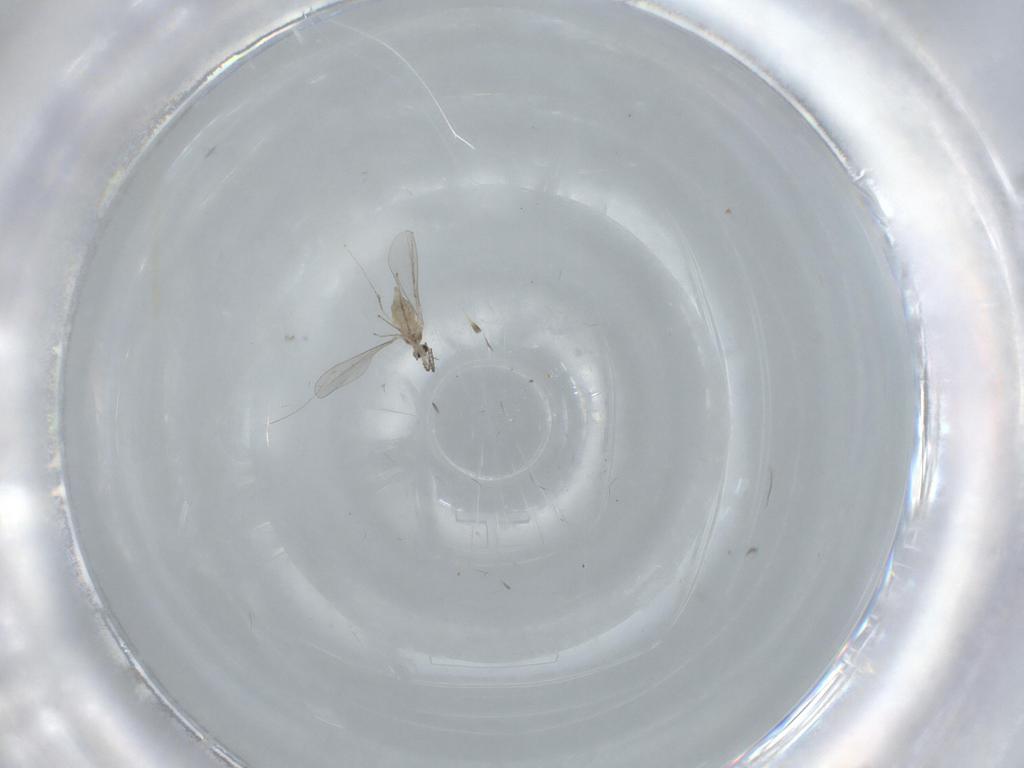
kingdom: Animalia
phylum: Arthropoda
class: Insecta
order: Diptera
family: Cecidomyiidae
